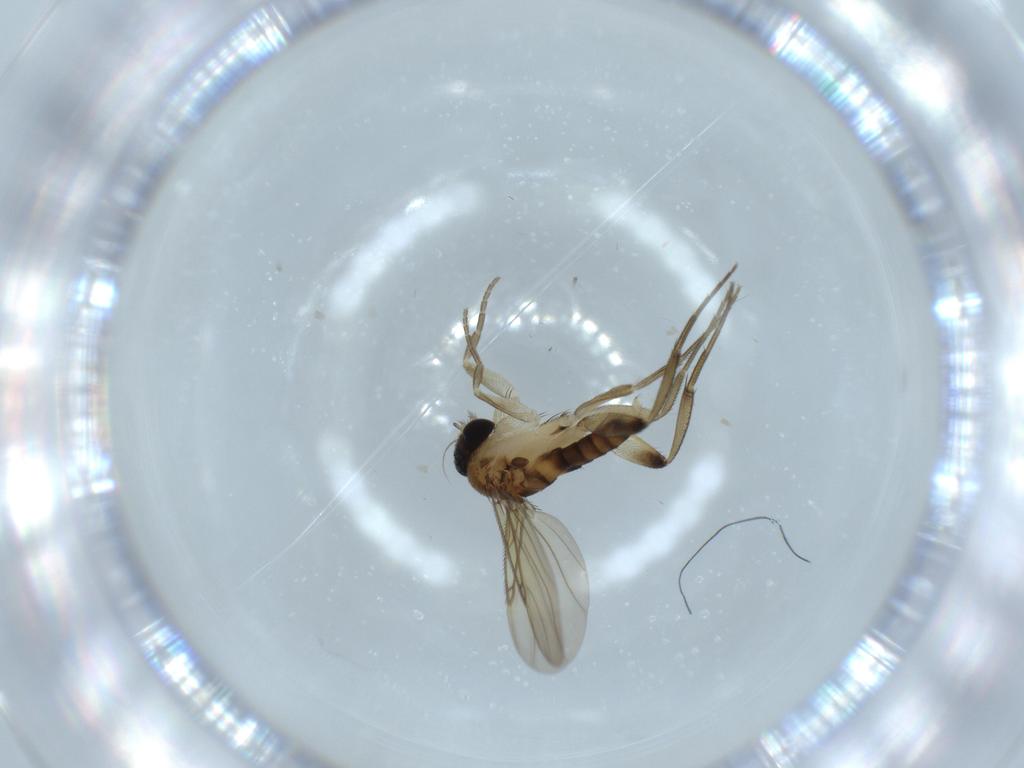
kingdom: Animalia
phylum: Arthropoda
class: Insecta
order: Diptera
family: Phoridae
